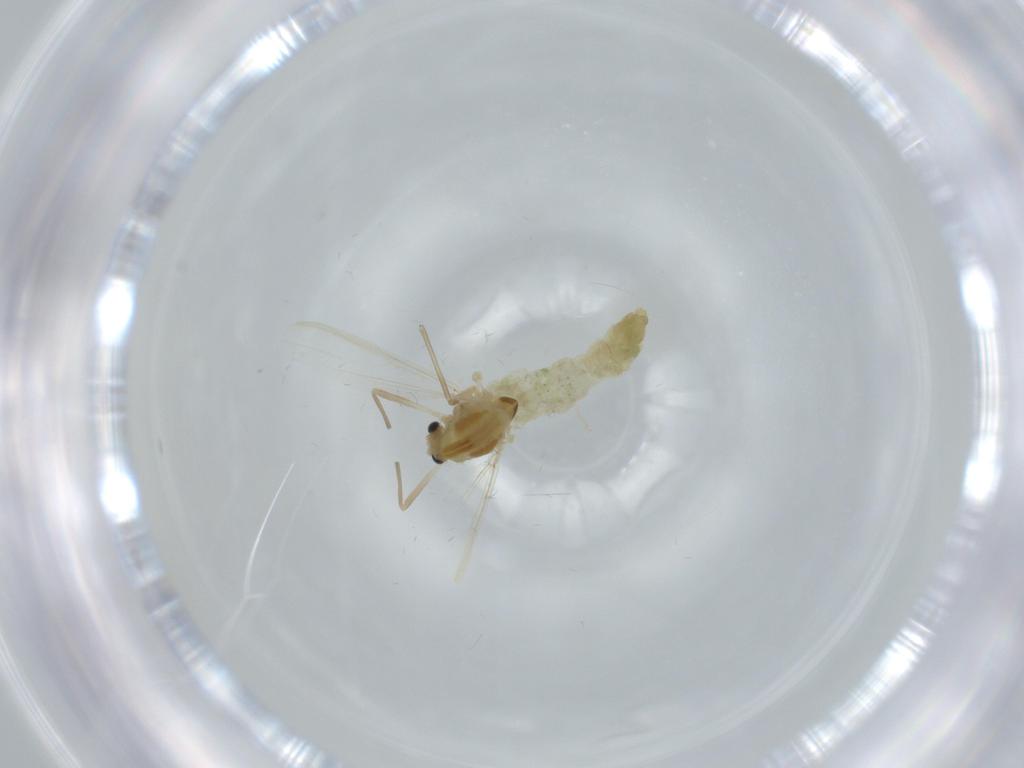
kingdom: Animalia
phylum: Arthropoda
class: Insecta
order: Diptera
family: Chironomidae
